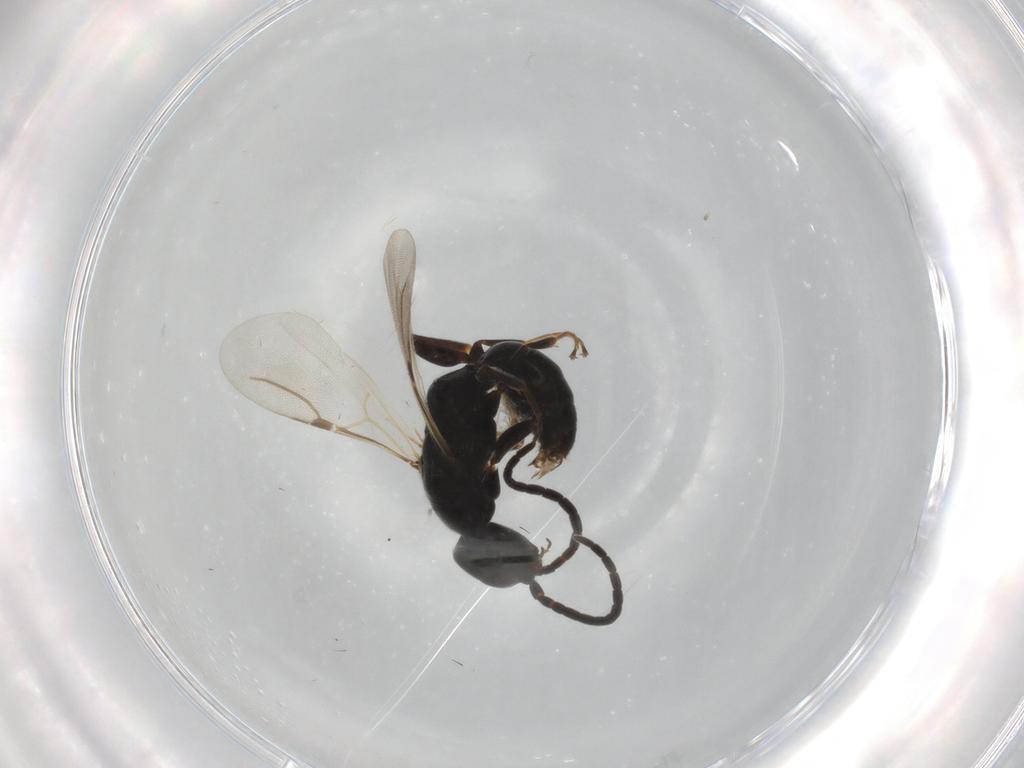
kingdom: Animalia
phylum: Arthropoda
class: Insecta
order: Hymenoptera
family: Bethylidae
